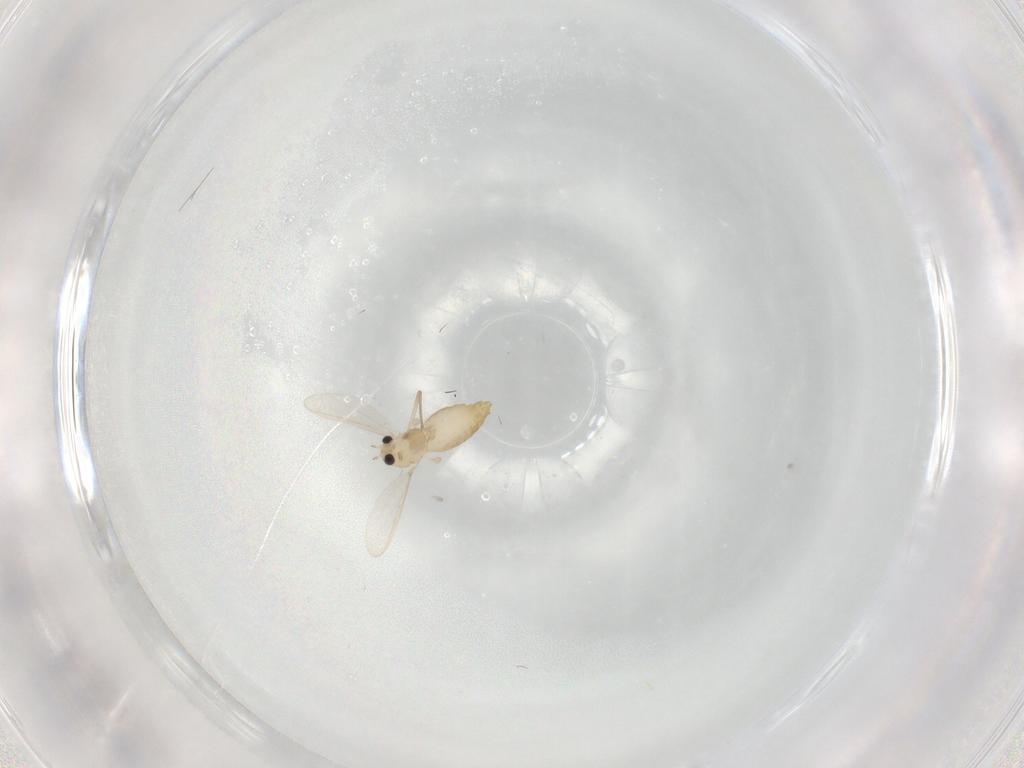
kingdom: Animalia
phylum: Arthropoda
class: Insecta
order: Diptera
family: Chironomidae
